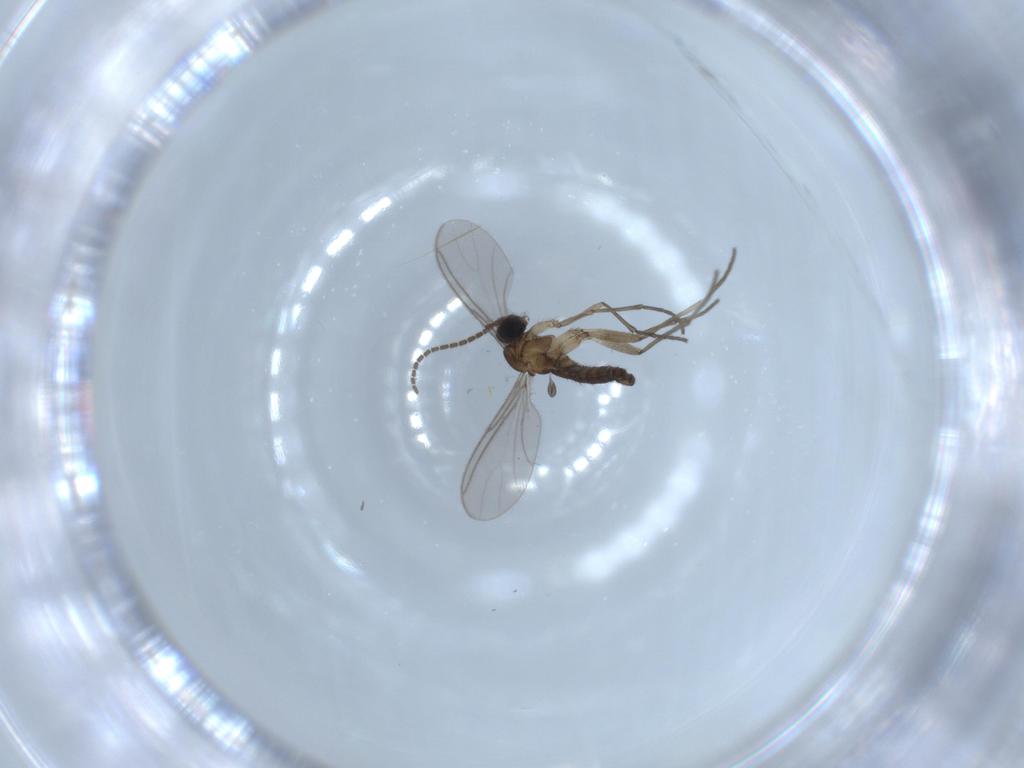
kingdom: Animalia
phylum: Arthropoda
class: Insecta
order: Diptera
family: Sciaridae
